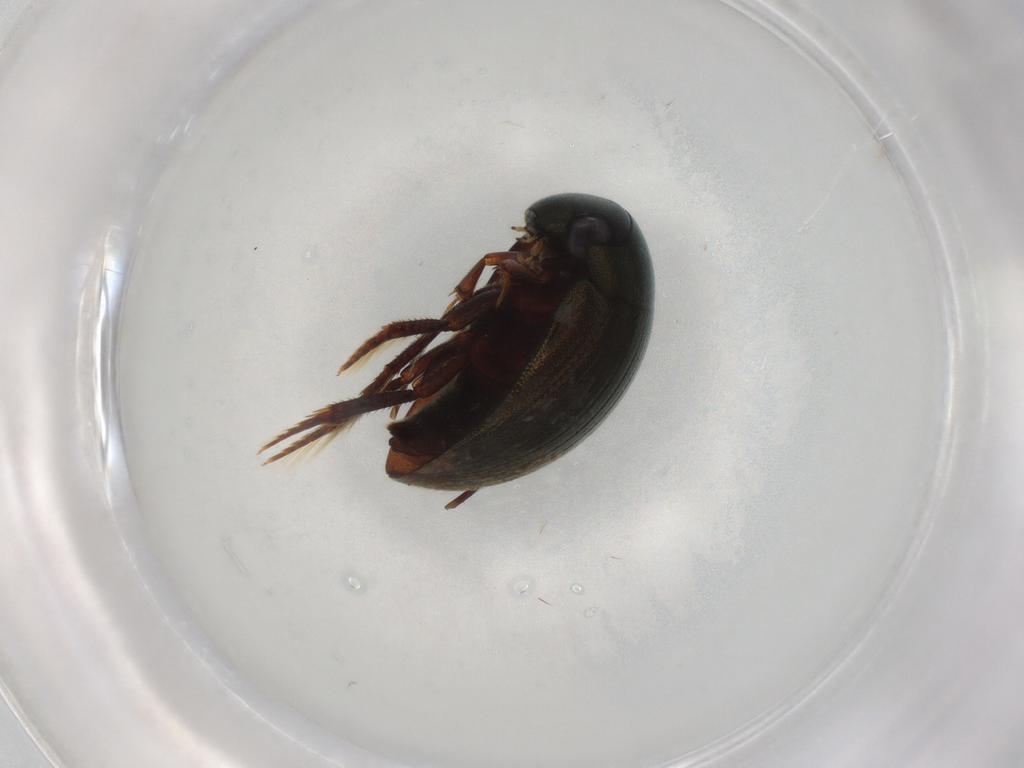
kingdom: Animalia
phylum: Arthropoda
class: Insecta
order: Coleoptera
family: Hydrophilidae
